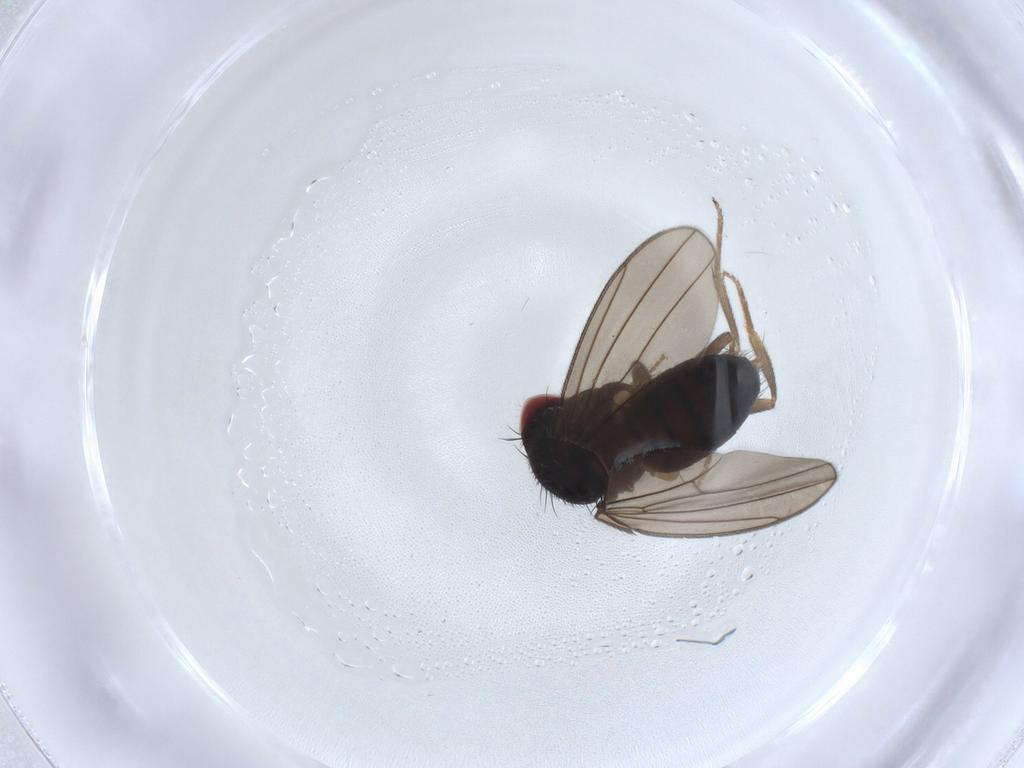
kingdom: Animalia
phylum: Arthropoda
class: Insecta
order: Diptera
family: Drosophilidae
